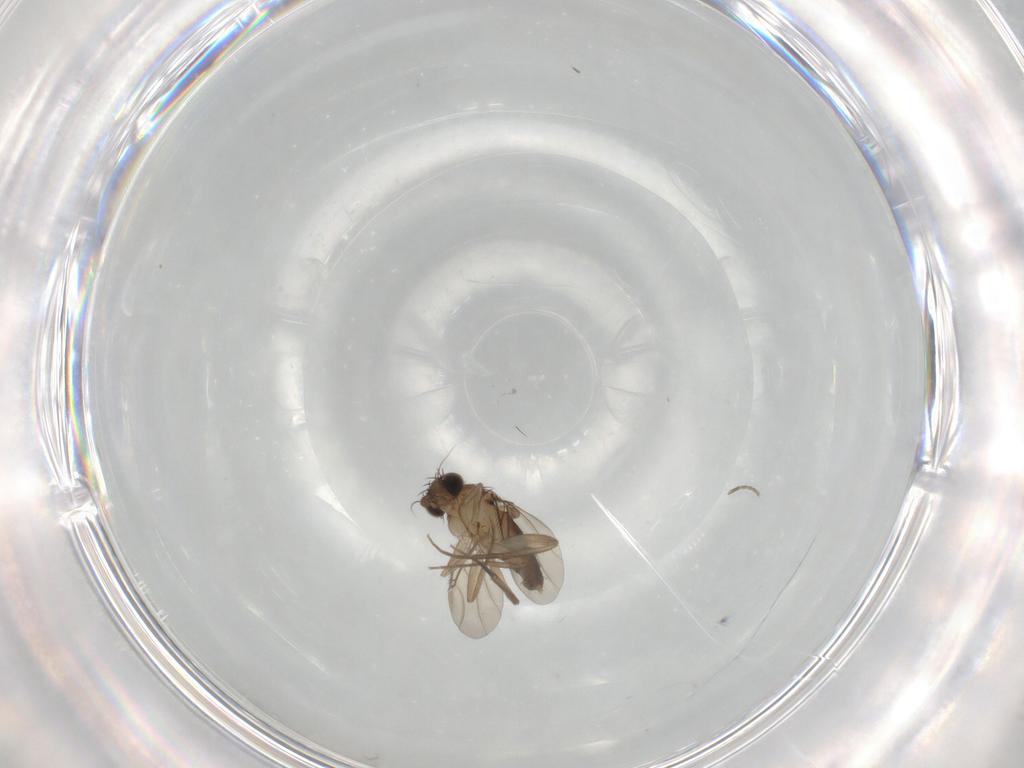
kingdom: Animalia
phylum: Arthropoda
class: Insecta
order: Diptera
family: Phoridae
